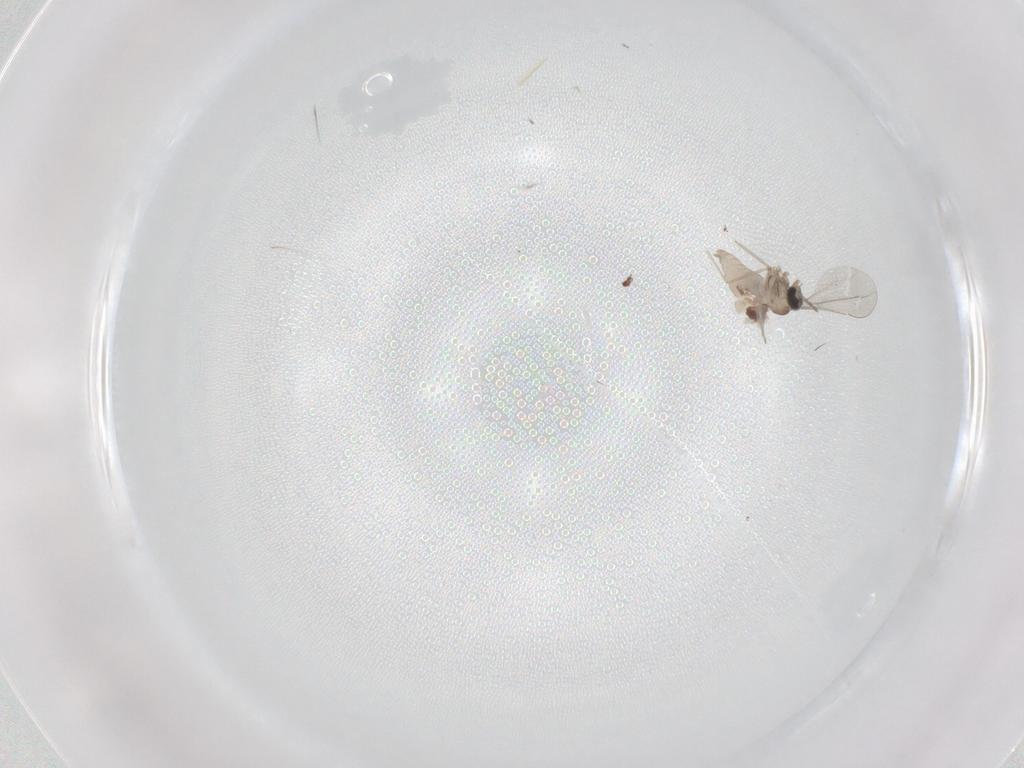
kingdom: Animalia
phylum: Arthropoda
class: Insecta
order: Diptera
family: Cecidomyiidae
